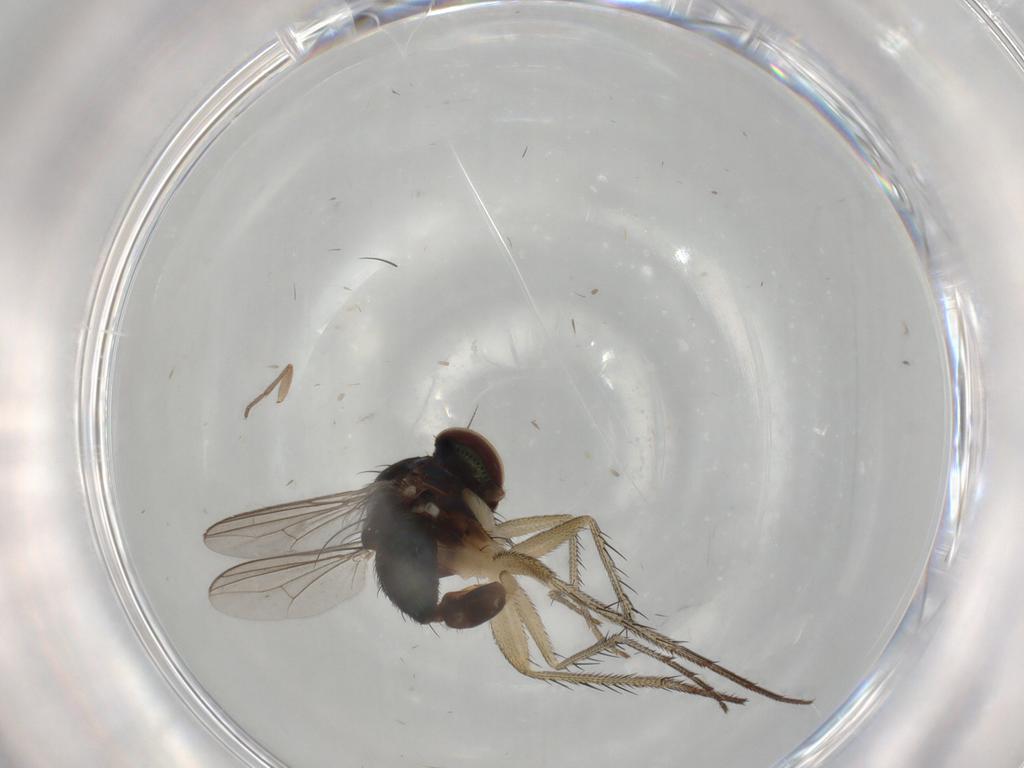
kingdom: Animalia
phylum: Arthropoda
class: Insecta
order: Diptera
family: Dolichopodidae
